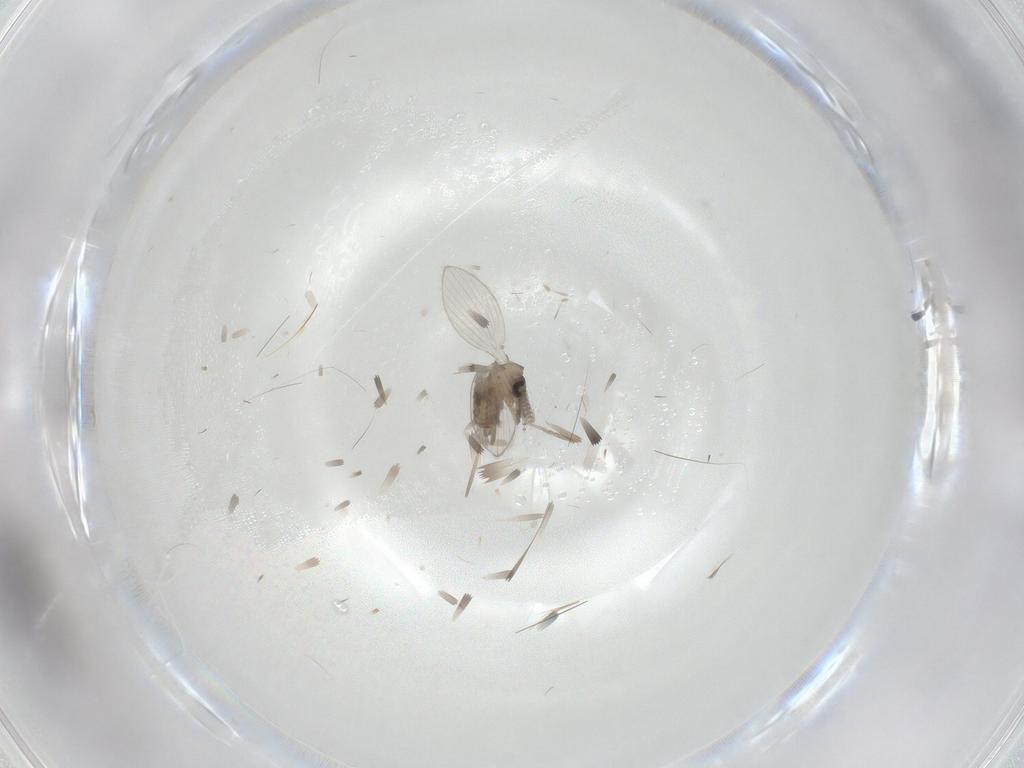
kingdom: Animalia
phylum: Arthropoda
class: Insecta
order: Diptera
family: Psychodidae
